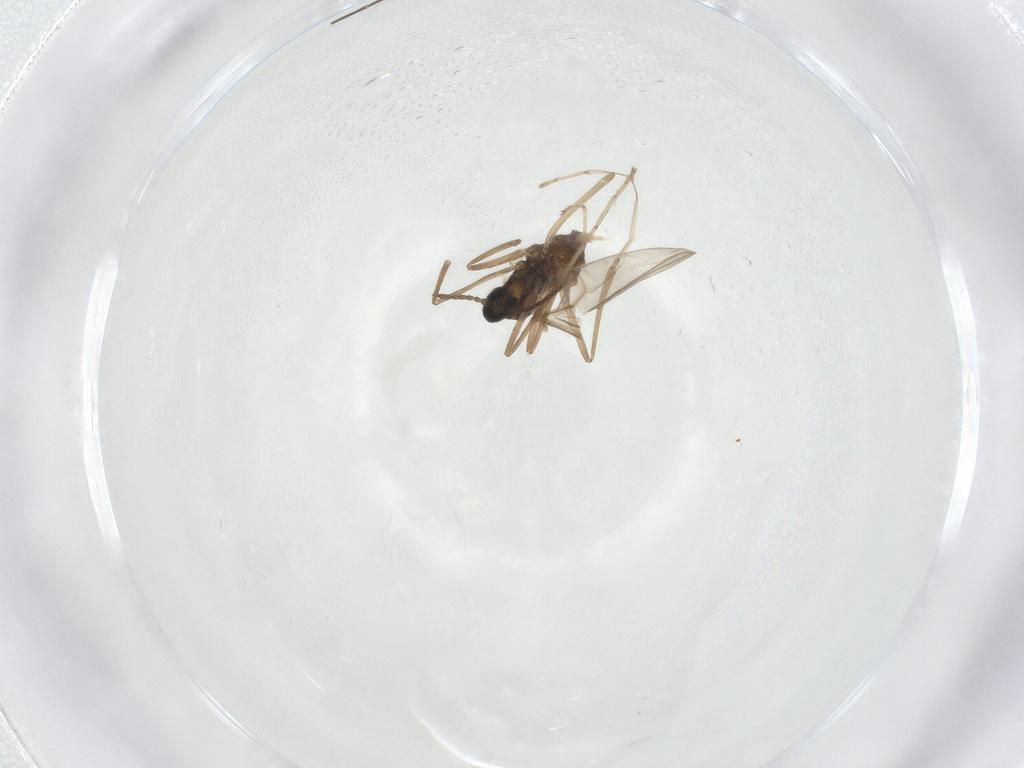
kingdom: Animalia
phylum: Arthropoda
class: Insecta
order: Diptera
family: Cecidomyiidae
